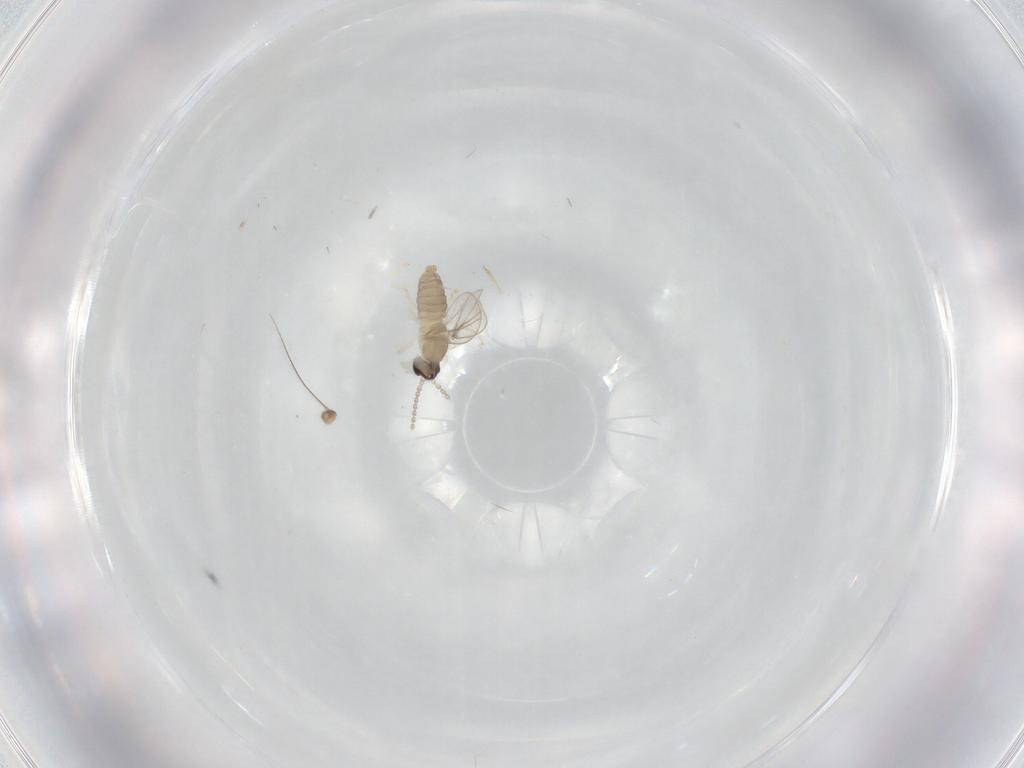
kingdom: Animalia
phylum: Arthropoda
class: Insecta
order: Diptera
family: Cecidomyiidae
